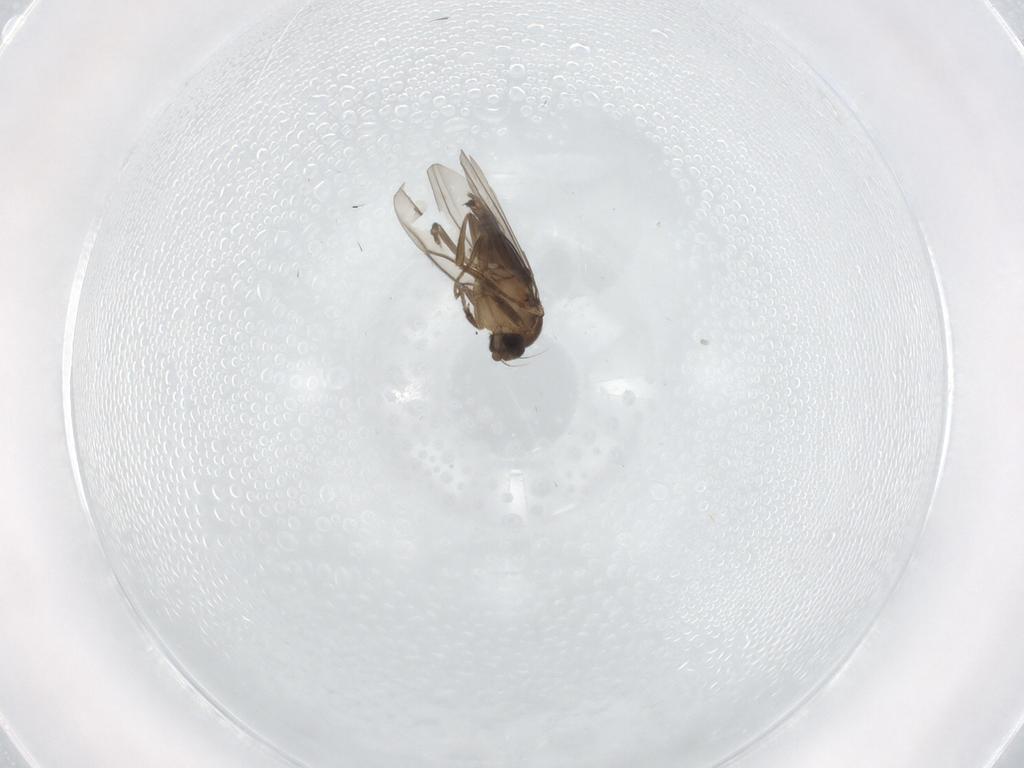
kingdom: Animalia
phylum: Arthropoda
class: Insecta
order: Diptera
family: Phoridae
